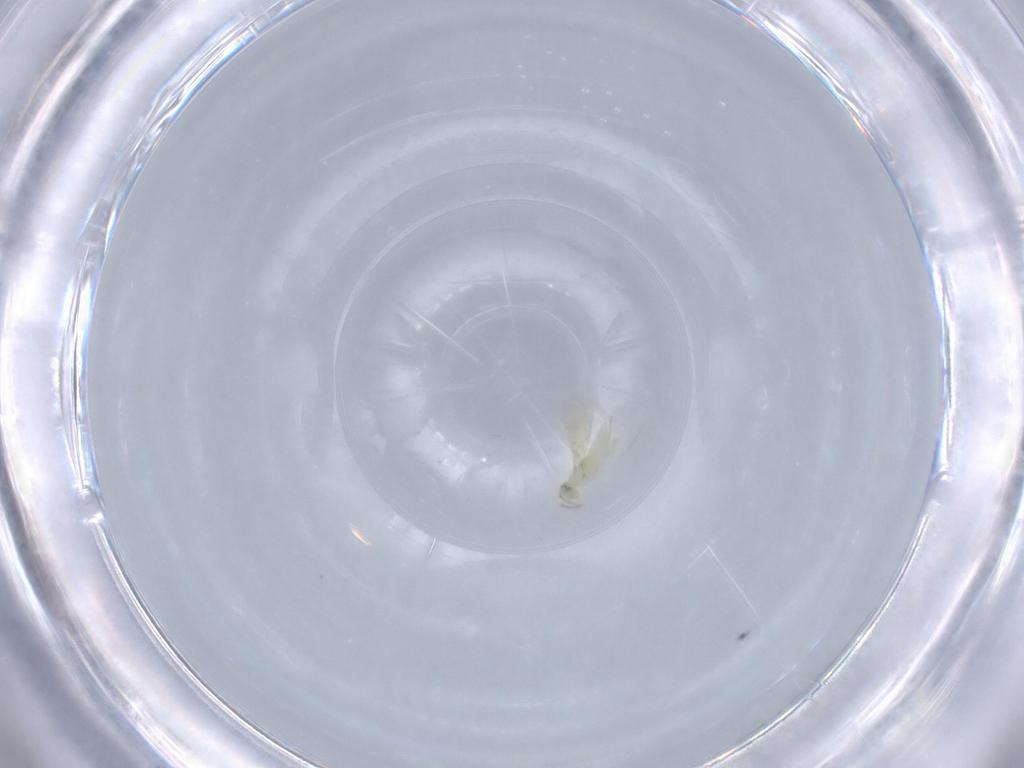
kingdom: Animalia
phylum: Arthropoda
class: Insecta
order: Hymenoptera
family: Aphelinidae
